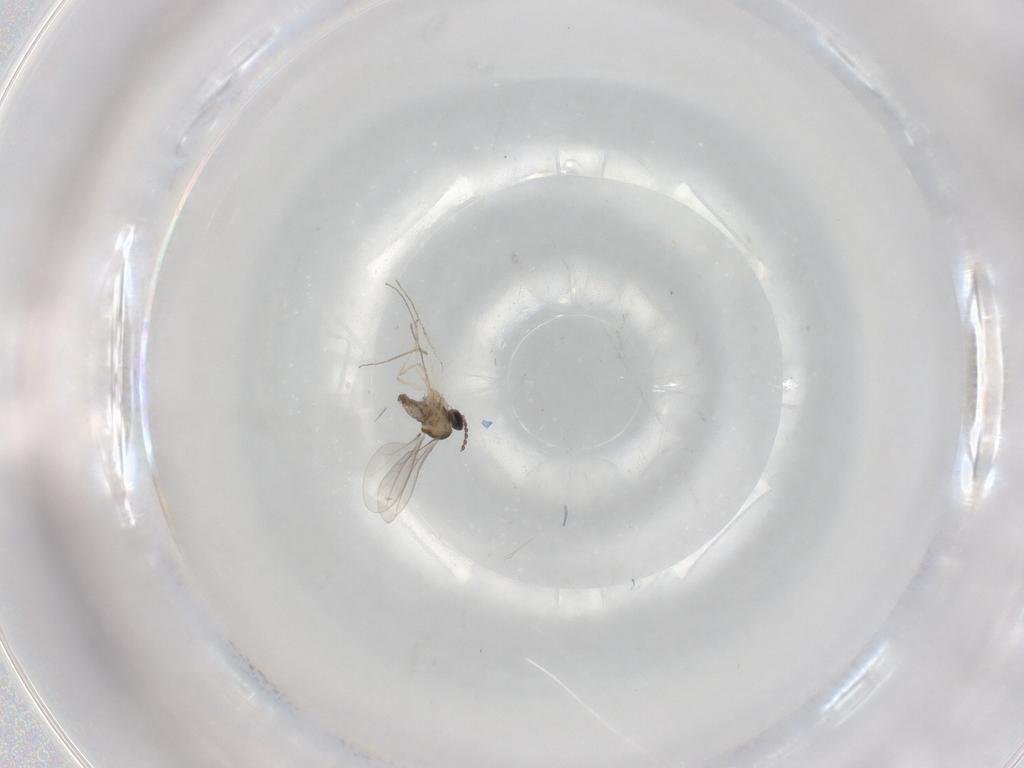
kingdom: Animalia
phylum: Arthropoda
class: Insecta
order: Diptera
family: Cecidomyiidae
